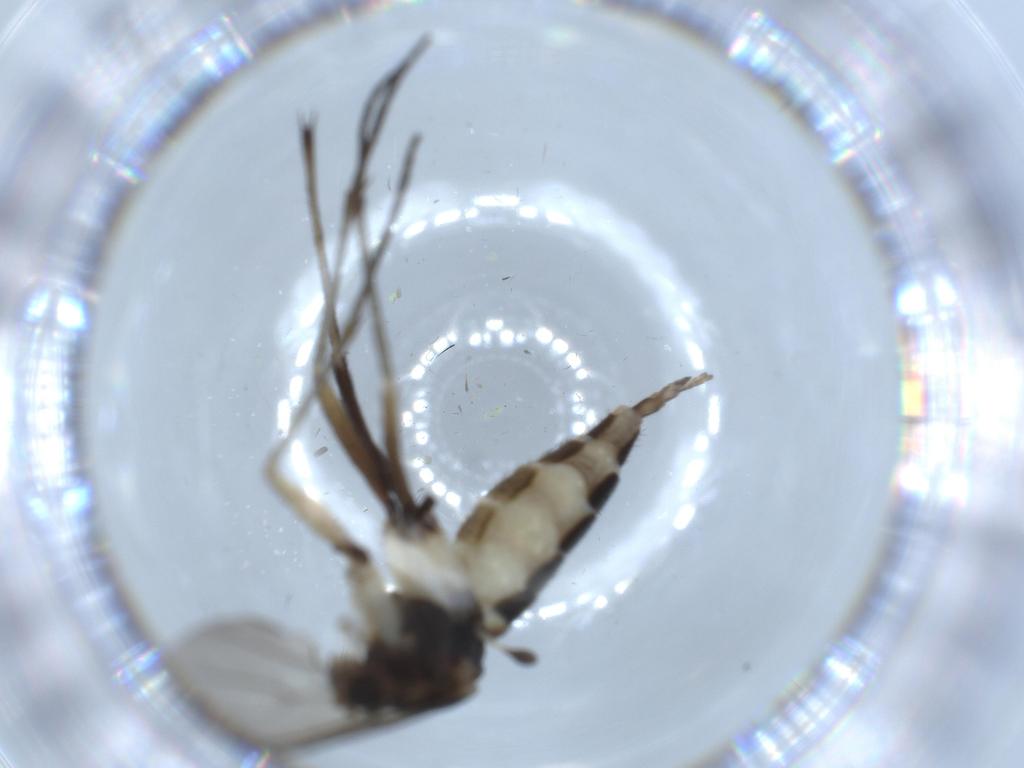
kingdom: Animalia
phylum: Arthropoda
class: Insecta
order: Diptera
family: Sciaridae
